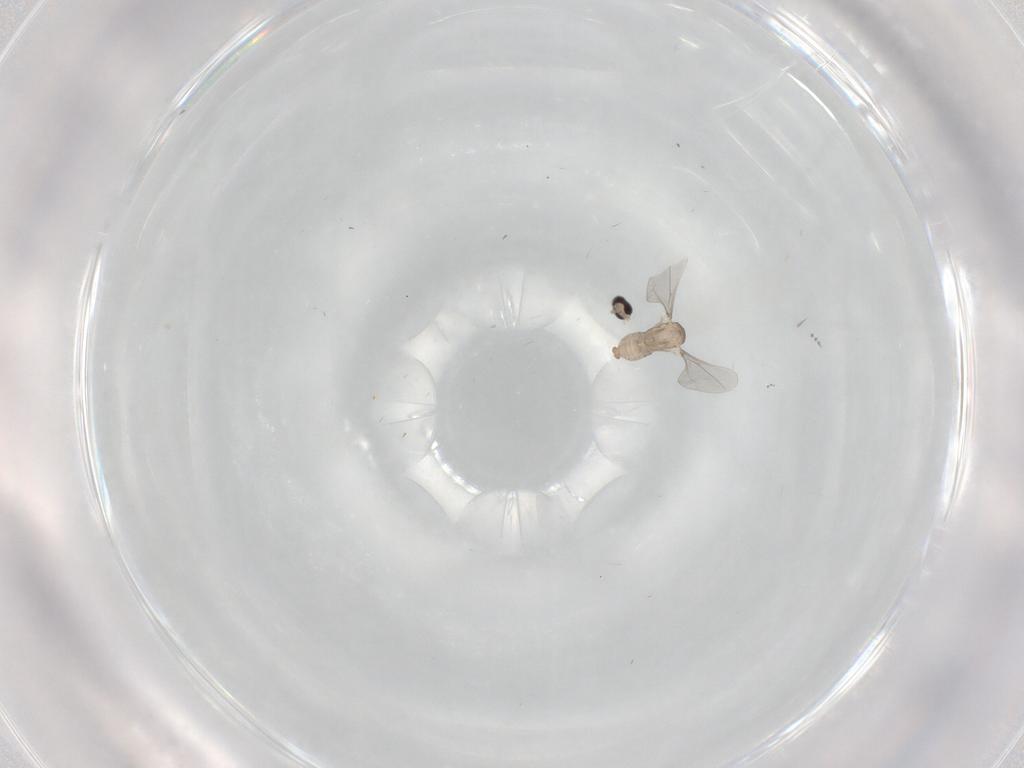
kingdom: Animalia
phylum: Arthropoda
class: Insecta
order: Diptera
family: Cecidomyiidae
